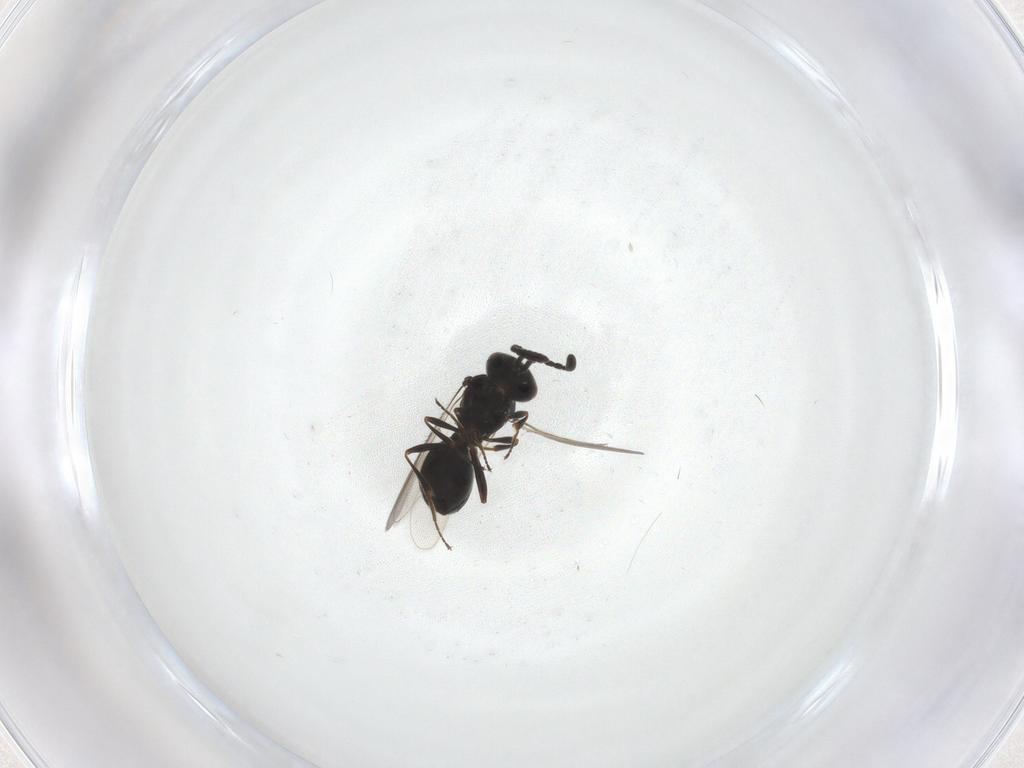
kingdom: Animalia
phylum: Arthropoda
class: Insecta
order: Hymenoptera
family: Scelionidae
